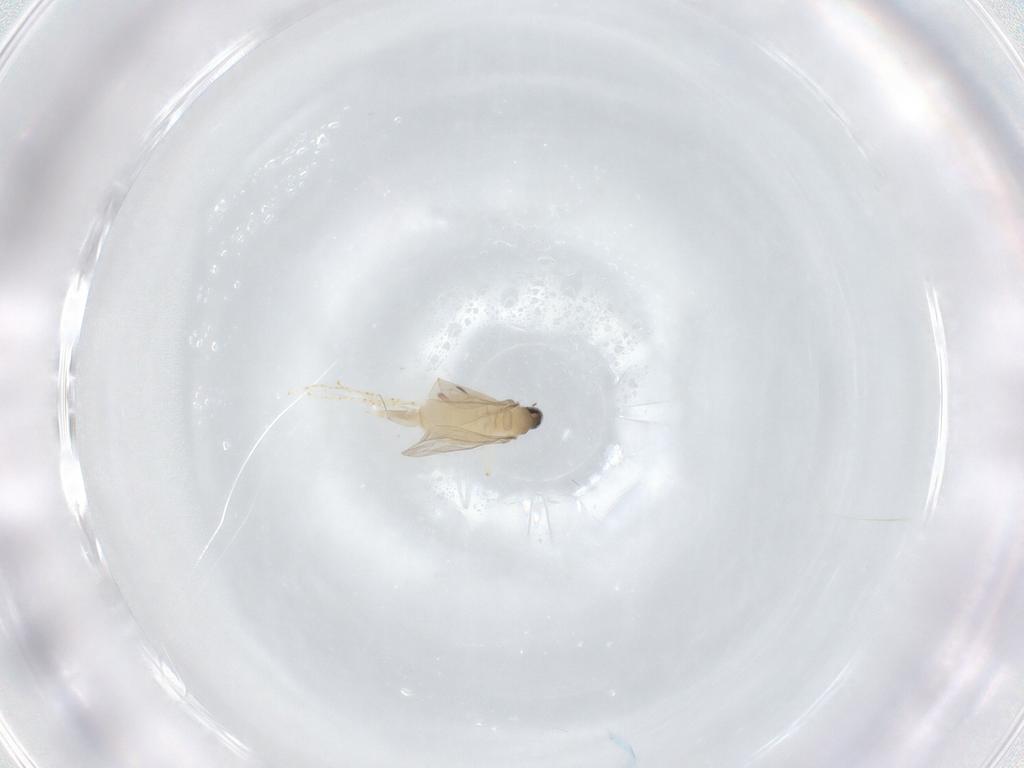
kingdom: Animalia
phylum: Arthropoda
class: Insecta
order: Diptera
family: Cecidomyiidae
